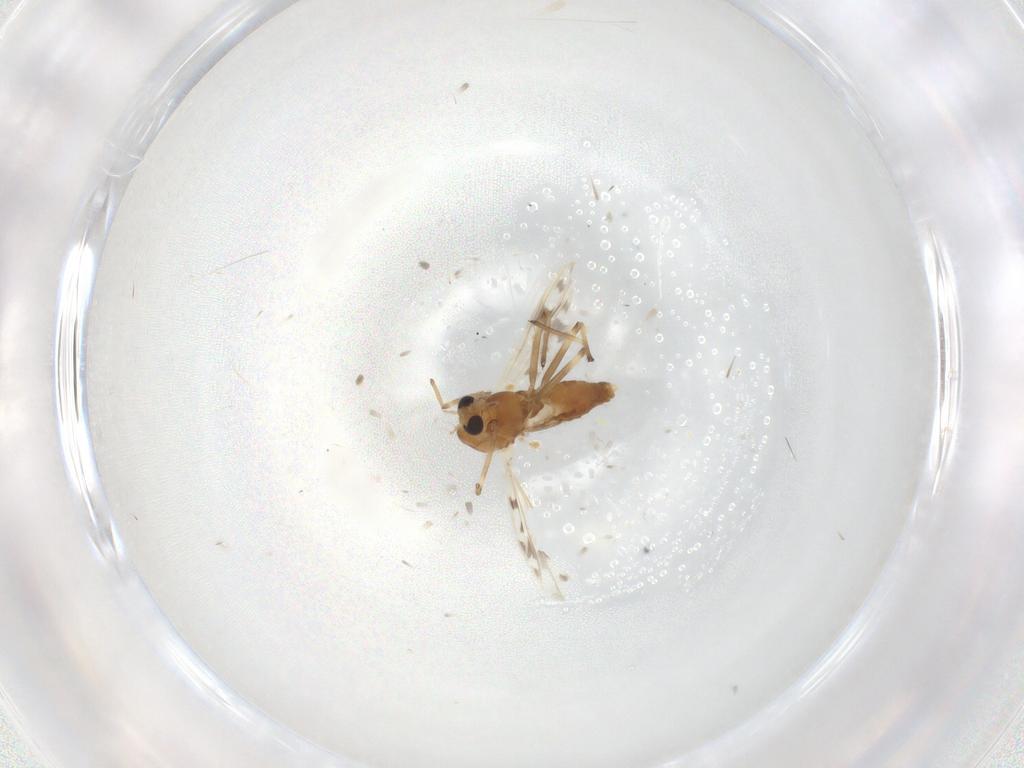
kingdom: Animalia
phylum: Arthropoda
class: Insecta
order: Diptera
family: Chironomidae
